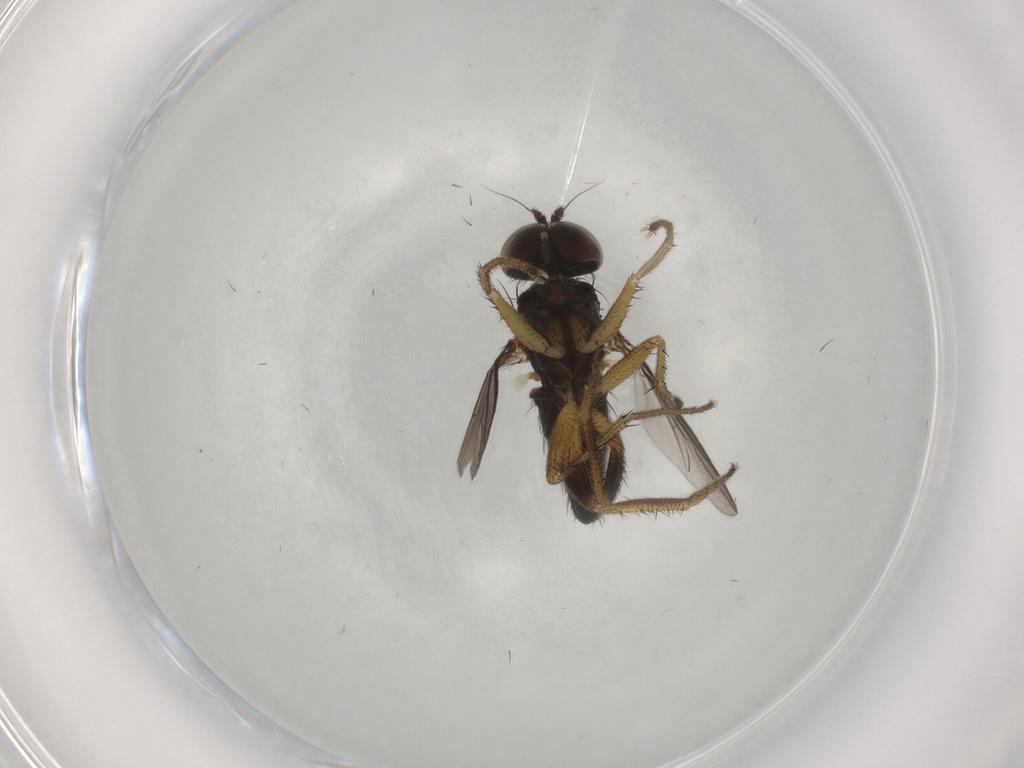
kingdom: Animalia
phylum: Arthropoda
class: Insecta
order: Diptera
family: Dolichopodidae
